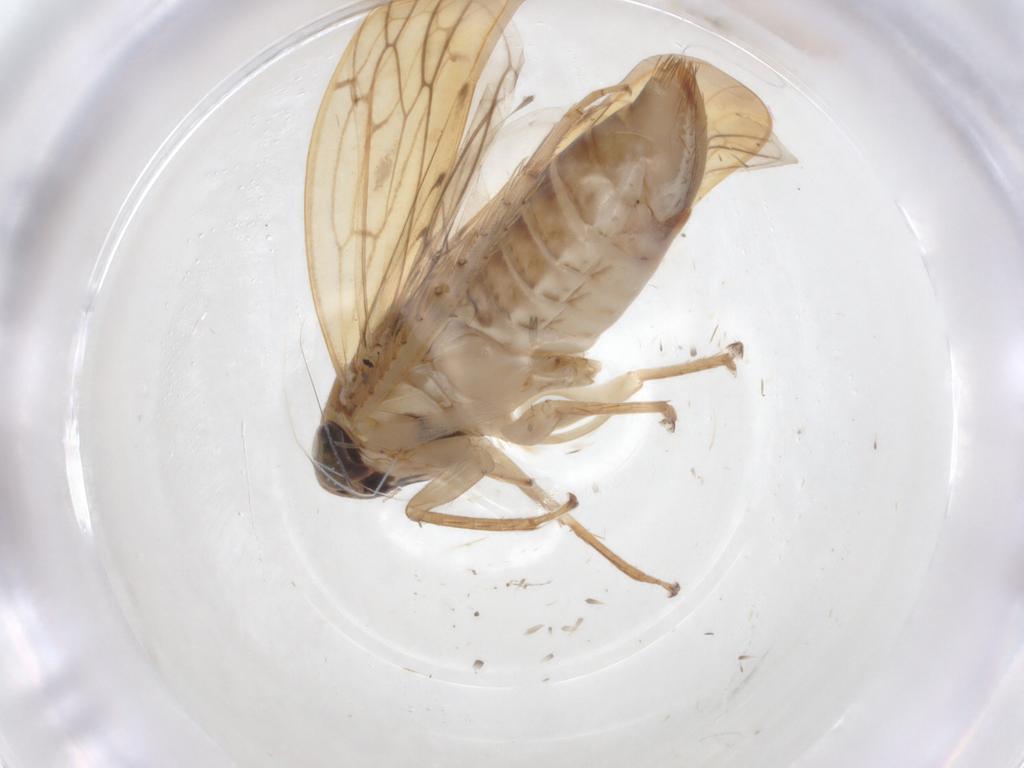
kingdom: Animalia
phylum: Arthropoda
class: Insecta
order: Hemiptera
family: Cicadellidae
